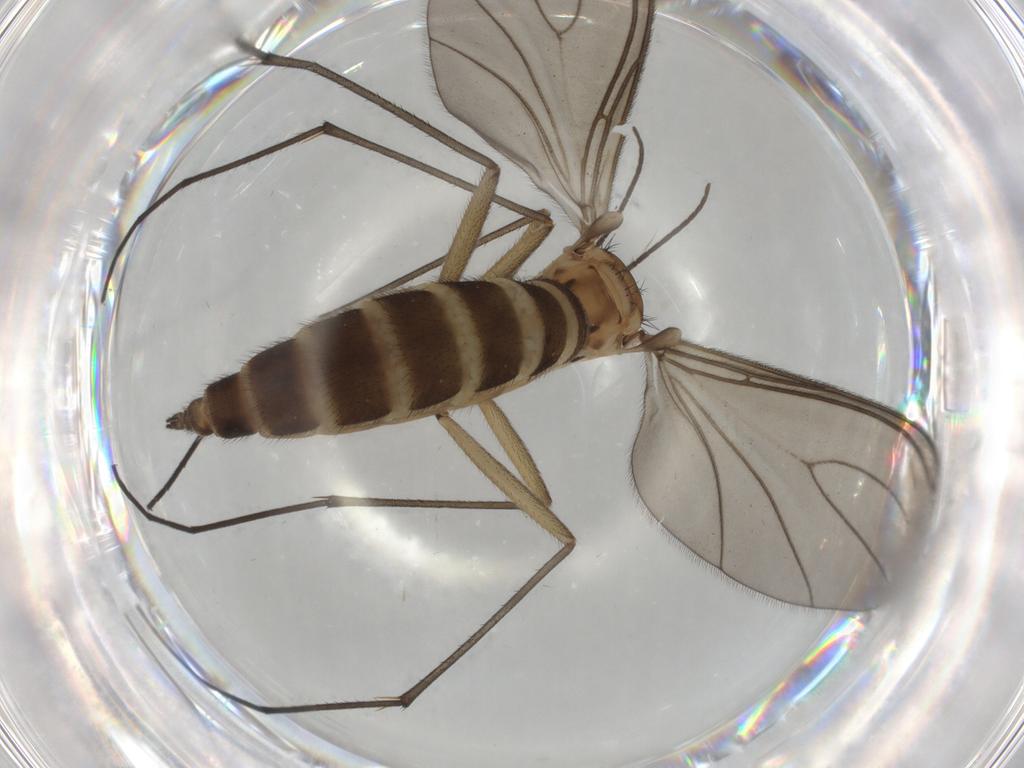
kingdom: Animalia
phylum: Arthropoda
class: Insecta
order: Diptera
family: Sciaridae
